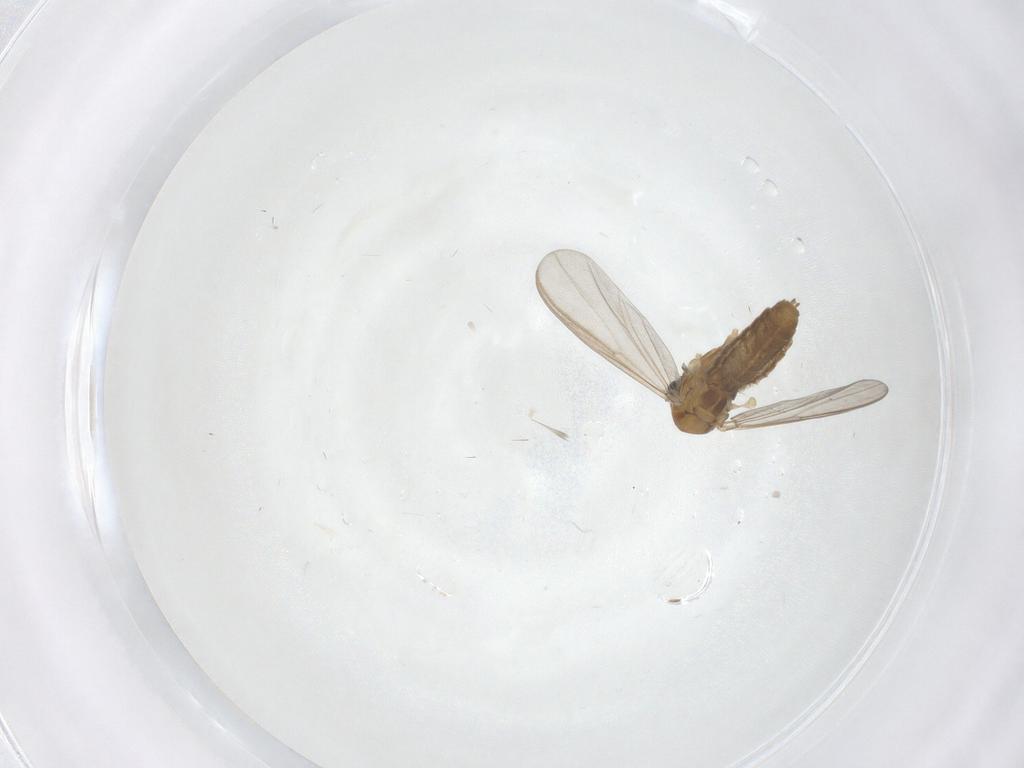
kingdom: Animalia
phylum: Arthropoda
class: Insecta
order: Diptera
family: Chironomidae
